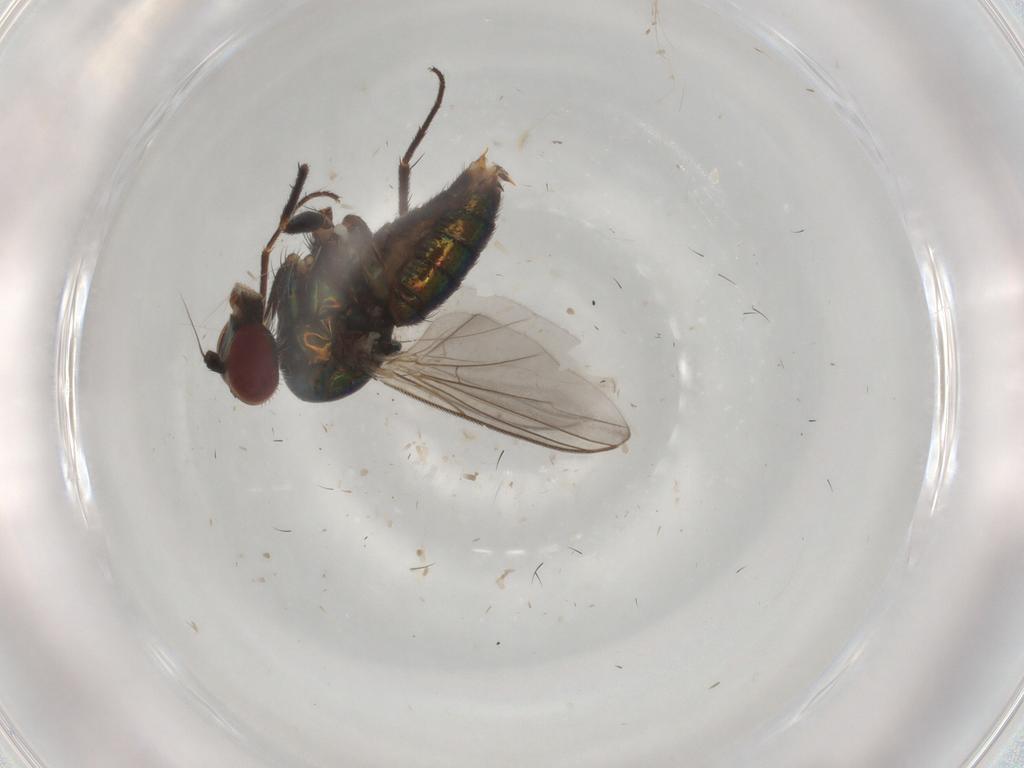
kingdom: Animalia
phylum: Arthropoda
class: Insecta
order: Diptera
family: Dolichopodidae
